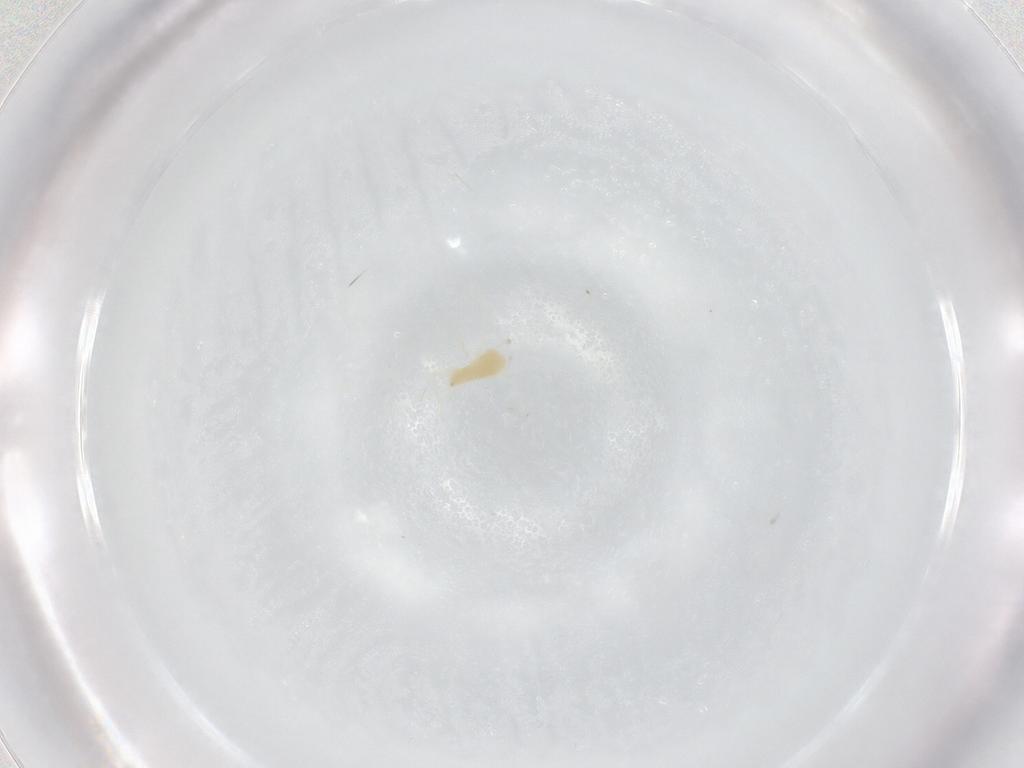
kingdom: Animalia
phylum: Arthropoda
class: Arachnida
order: Trombidiformes
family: Tetranychidae
